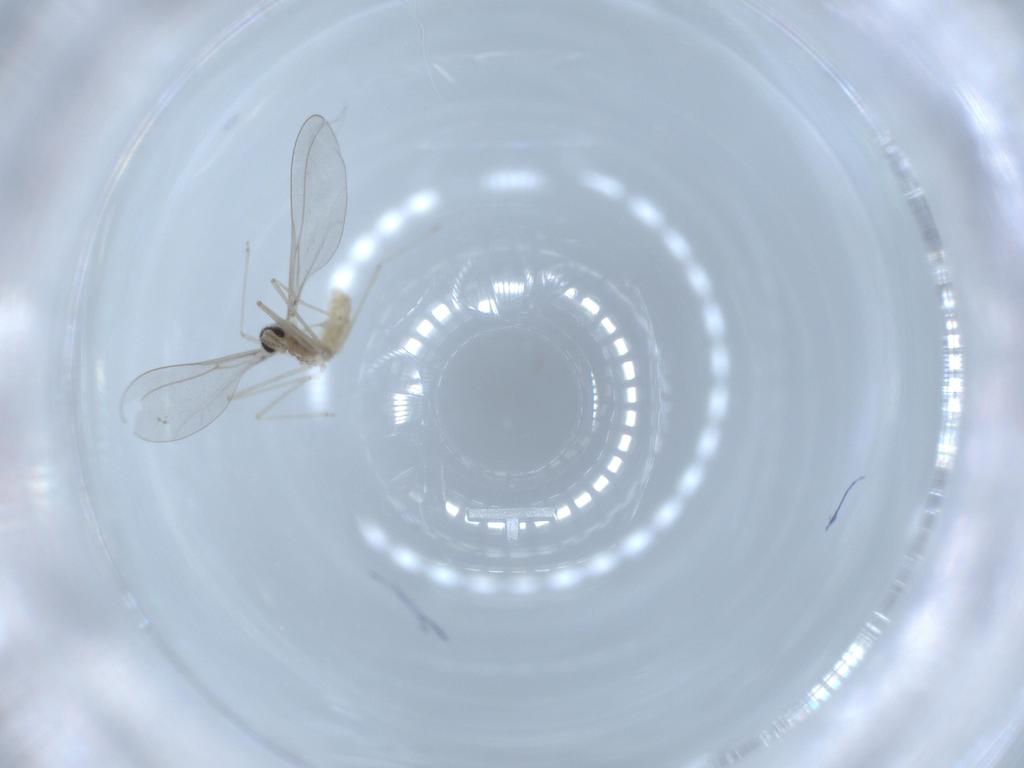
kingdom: Animalia
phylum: Arthropoda
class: Insecta
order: Diptera
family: Cecidomyiidae
